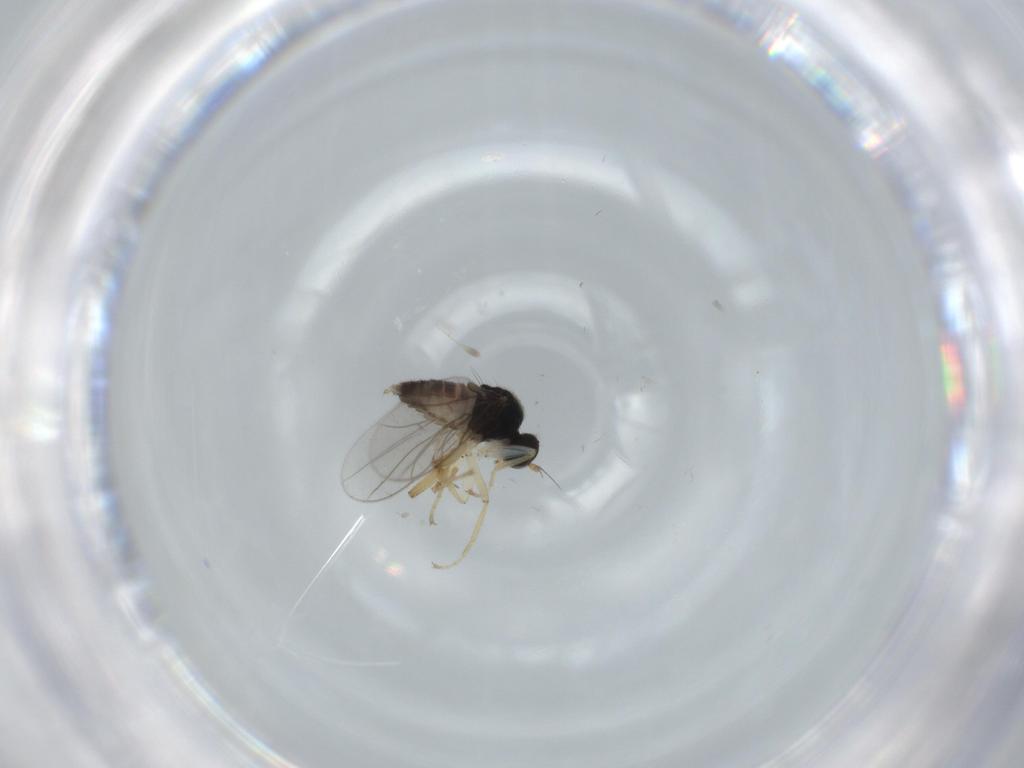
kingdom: Animalia
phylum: Arthropoda
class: Insecta
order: Diptera
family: Hybotidae
